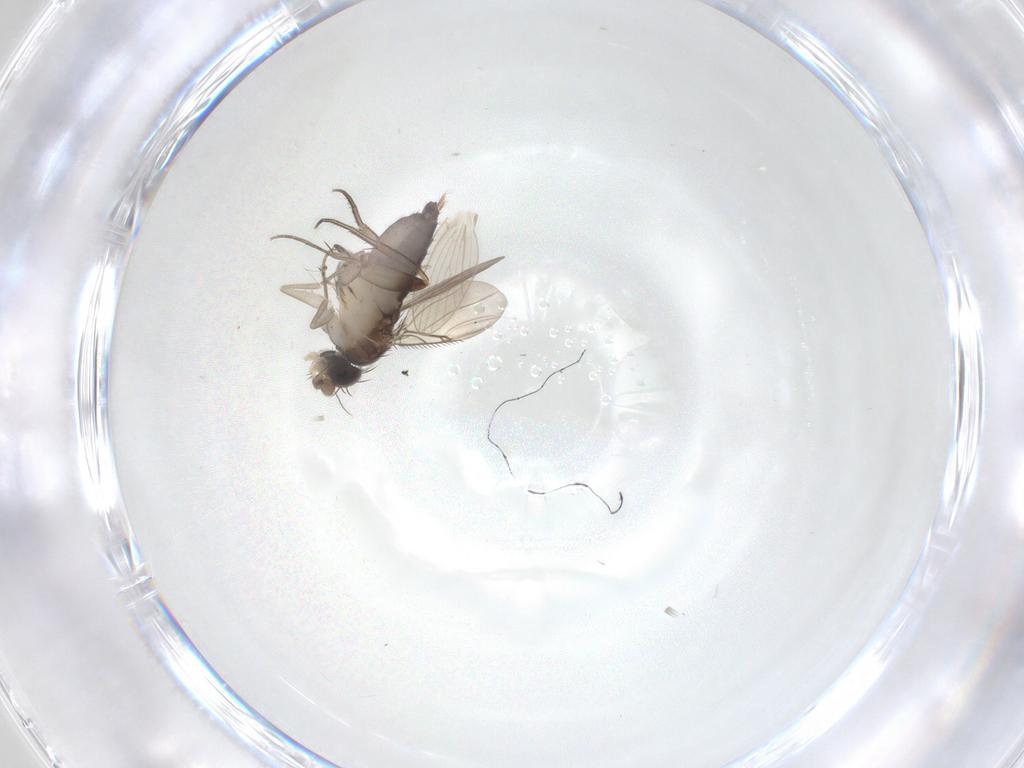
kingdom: Animalia
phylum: Arthropoda
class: Insecta
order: Diptera
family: Phoridae
